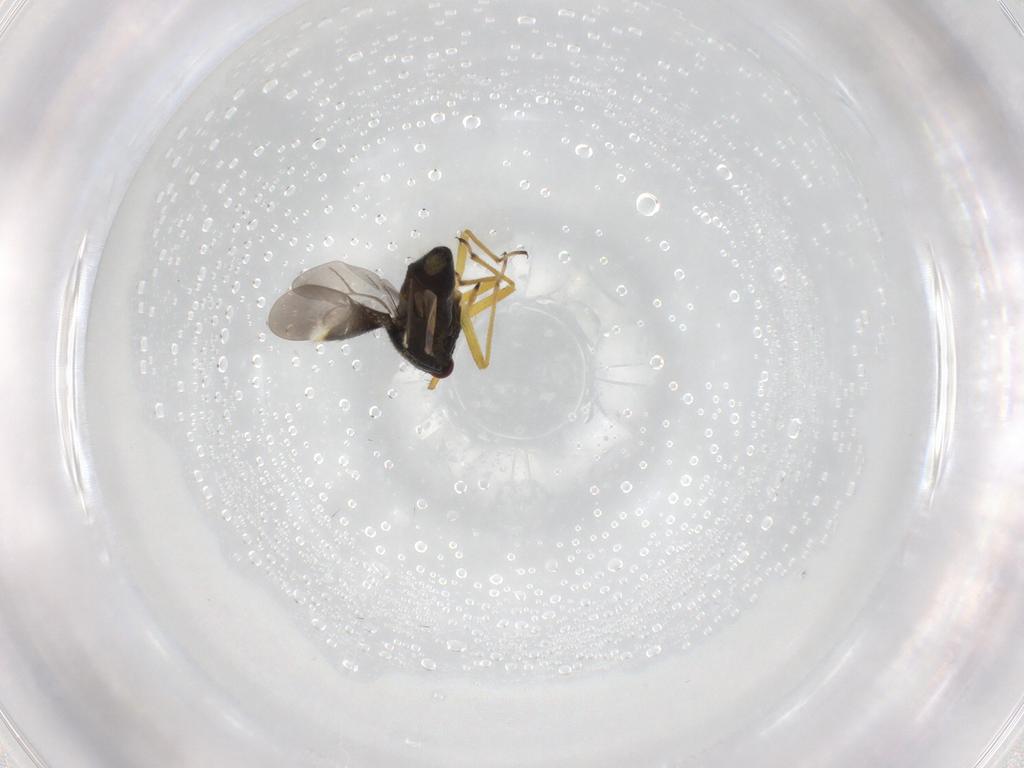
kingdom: Animalia
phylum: Arthropoda
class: Insecta
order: Hemiptera
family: Miridae
